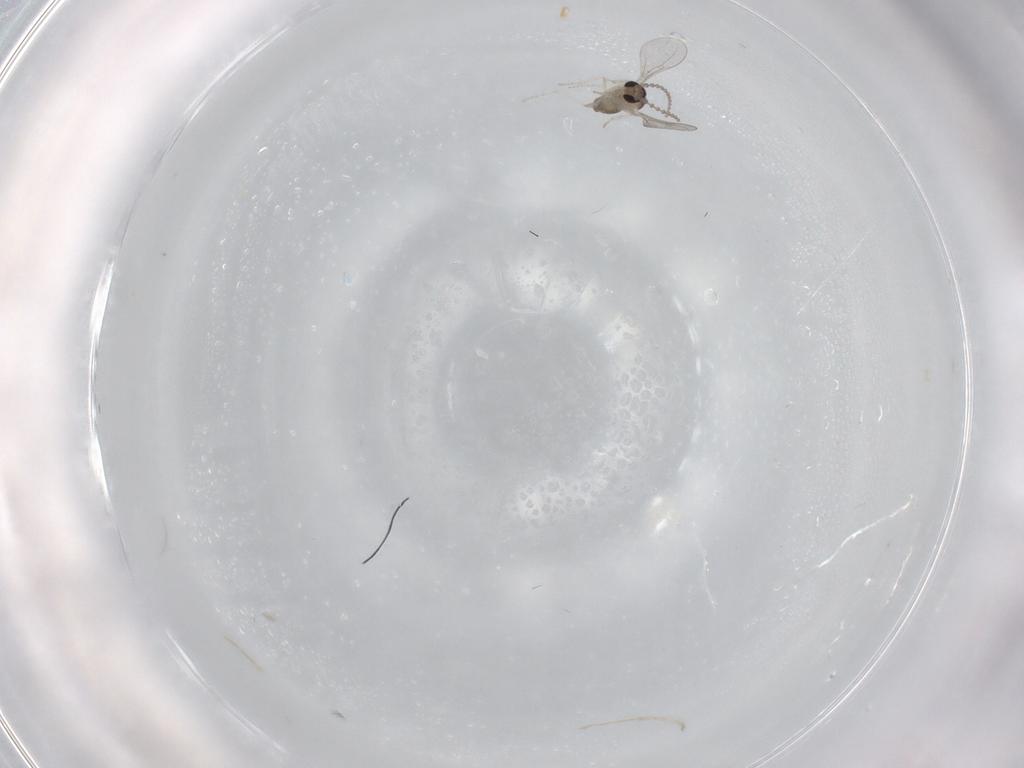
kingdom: Animalia
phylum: Arthropoda
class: Insecta
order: Diptera
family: Cecidomyiidae
